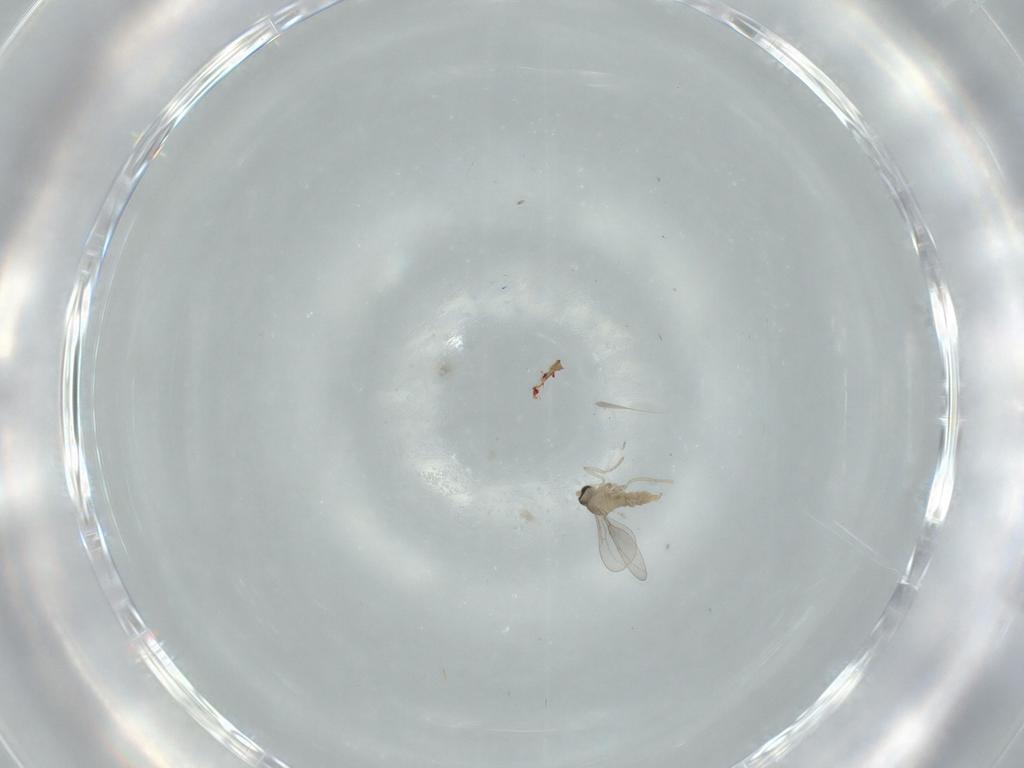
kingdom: Animalia
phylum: Arthropoda
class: Insecta
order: Diptera
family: Cecidomyiidae
